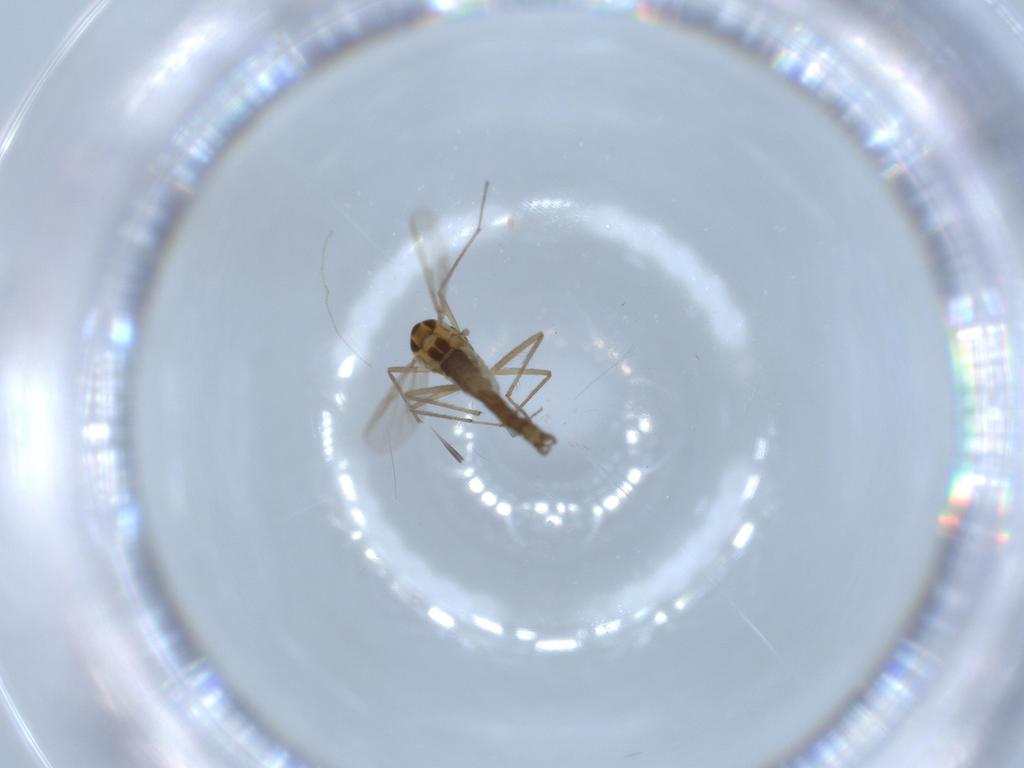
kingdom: Animalia
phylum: Arthropoda
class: Insecta
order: Diptera
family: Chironomidae
